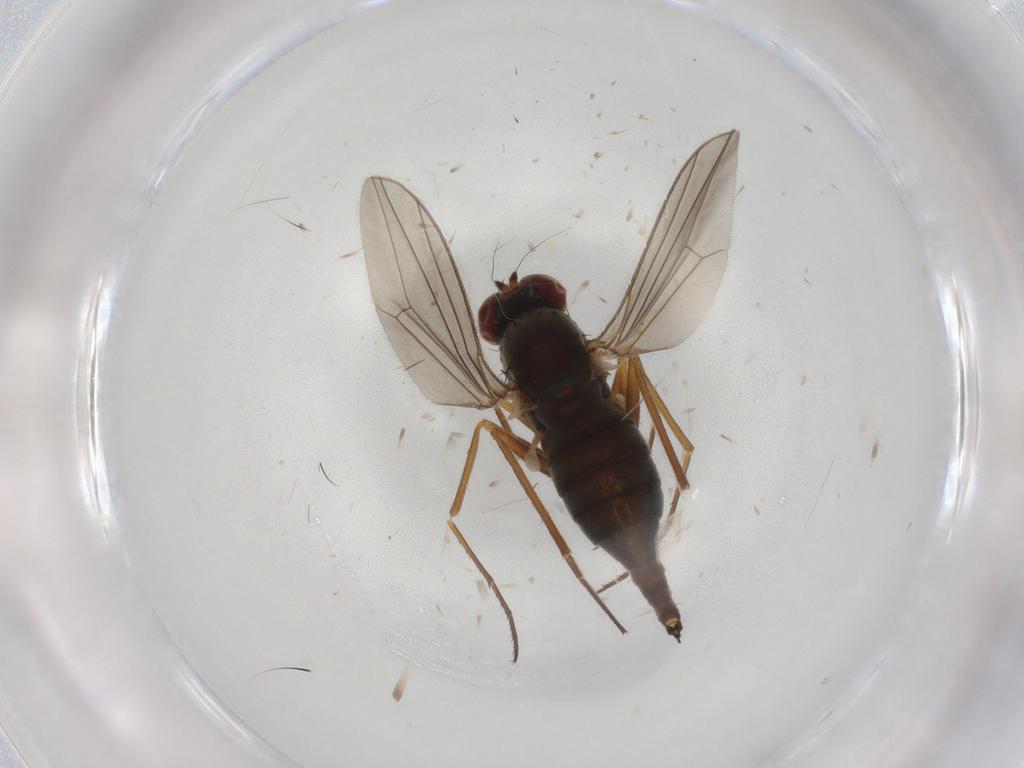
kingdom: Animalia
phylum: Arthropoda
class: Insecta
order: Diptera
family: Dolichopodidae
